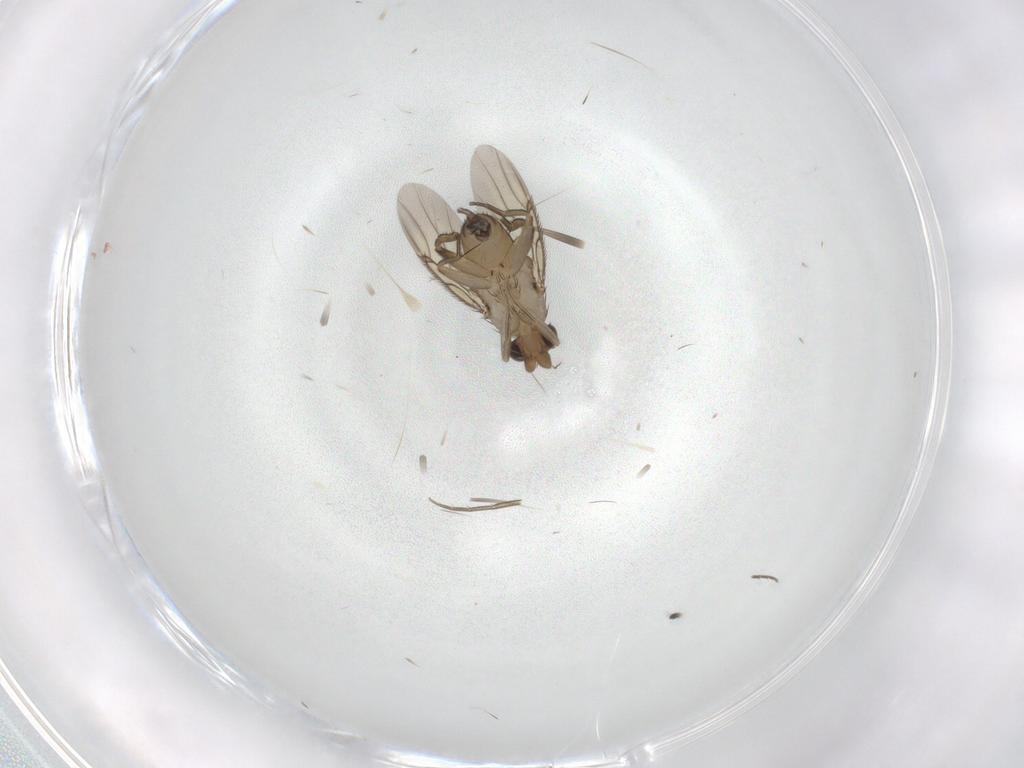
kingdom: Animalia
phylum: Arthropoda
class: Insecta
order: Diptera
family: Phoridae
